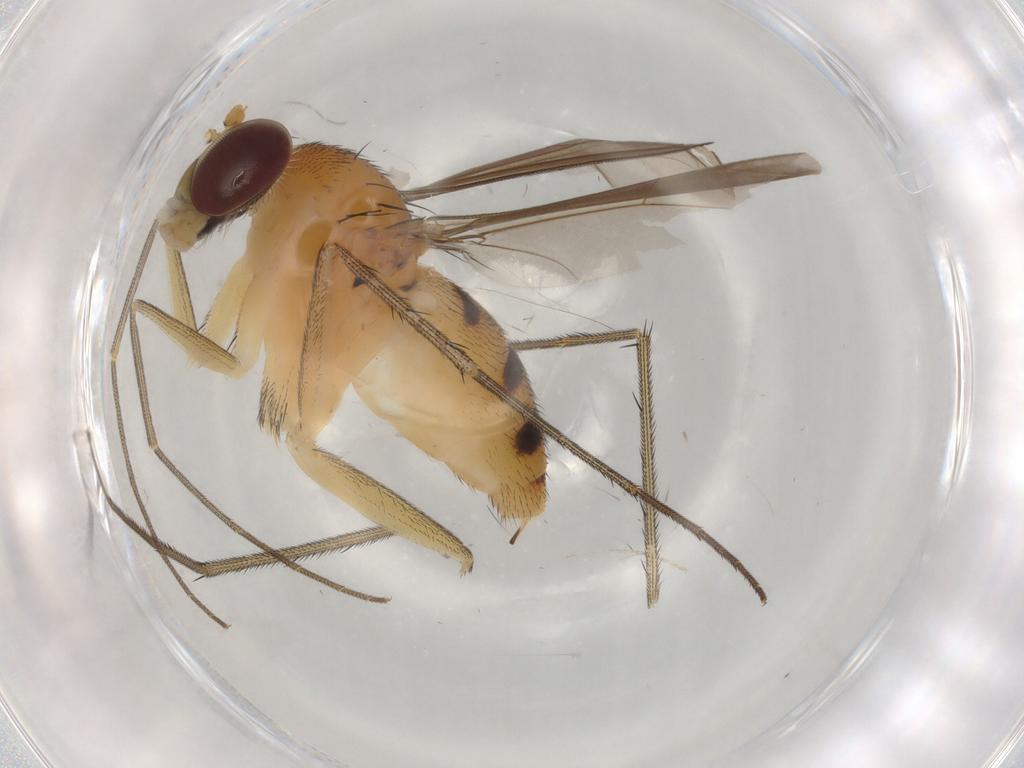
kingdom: Animalia
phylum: Arthropoda
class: Insecta
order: Diptera
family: Dolichopodidae
